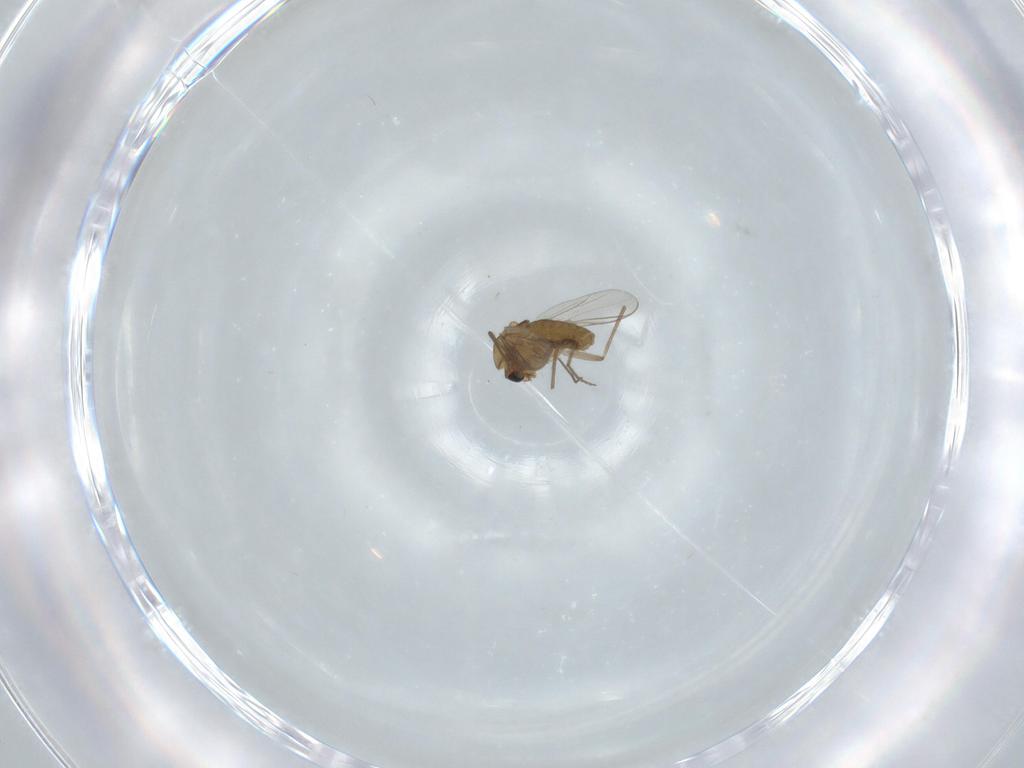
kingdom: Animalia
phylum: Arthropoda
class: Insecta
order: Diptera
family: Chironomidae
